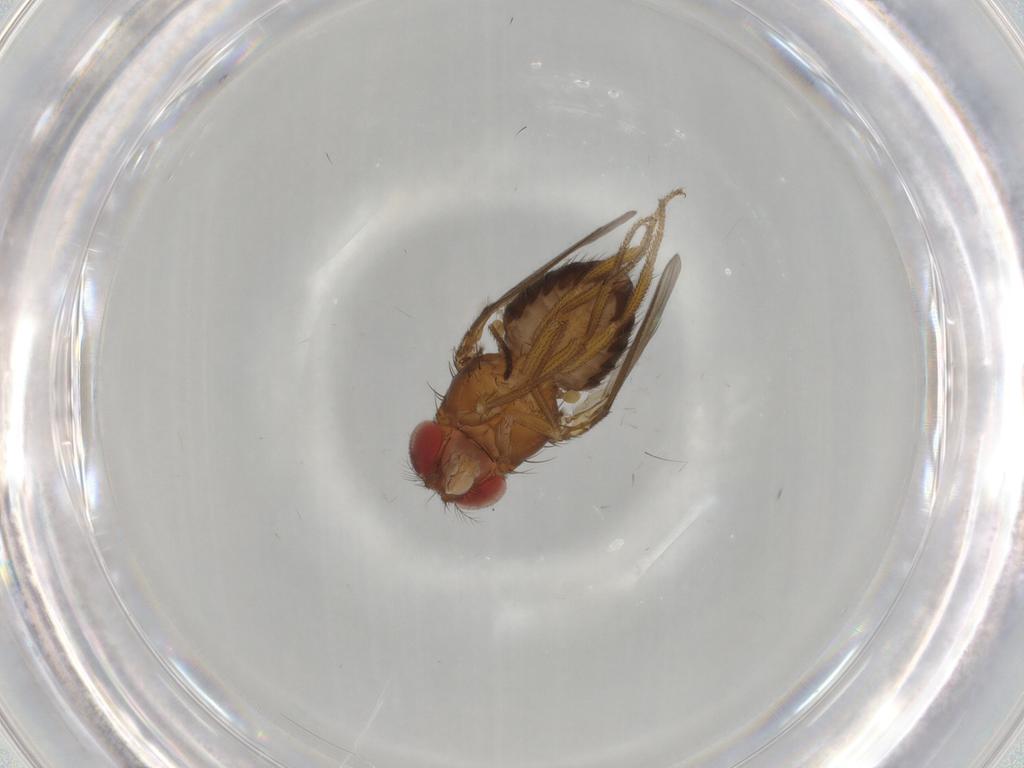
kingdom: Animalia
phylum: Arthropoda
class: Insecta
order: Diptera
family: Drosophilidae
